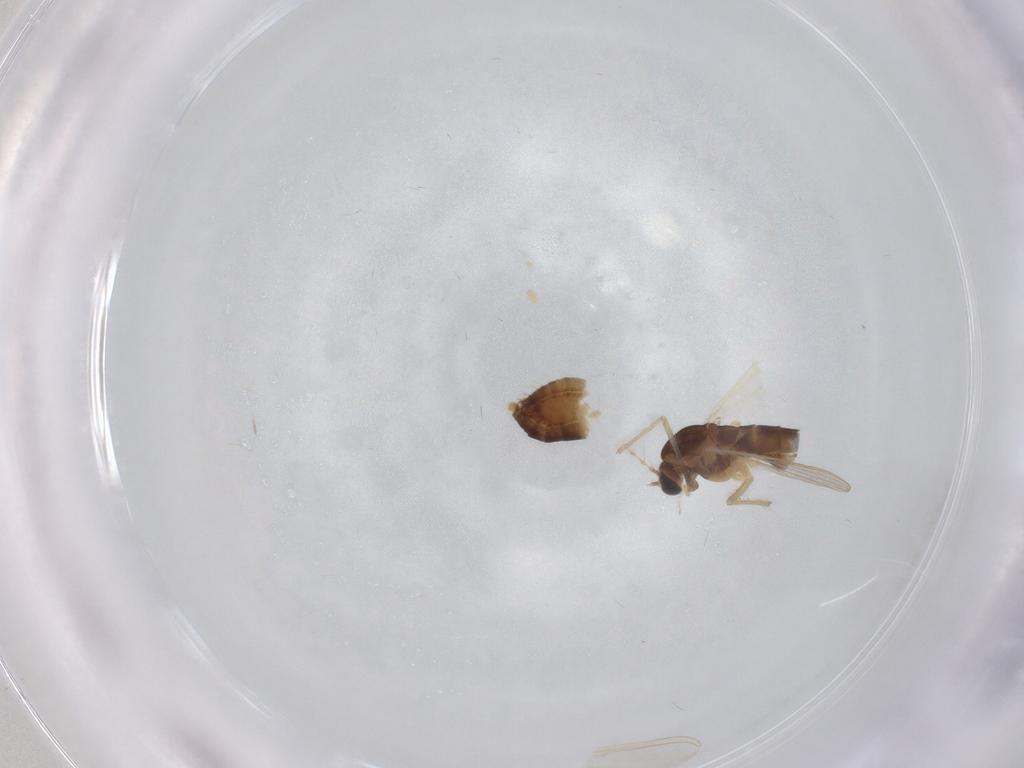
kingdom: Animalia
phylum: Arthropoda
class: Insecta
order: Diptera
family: Chironomidae
